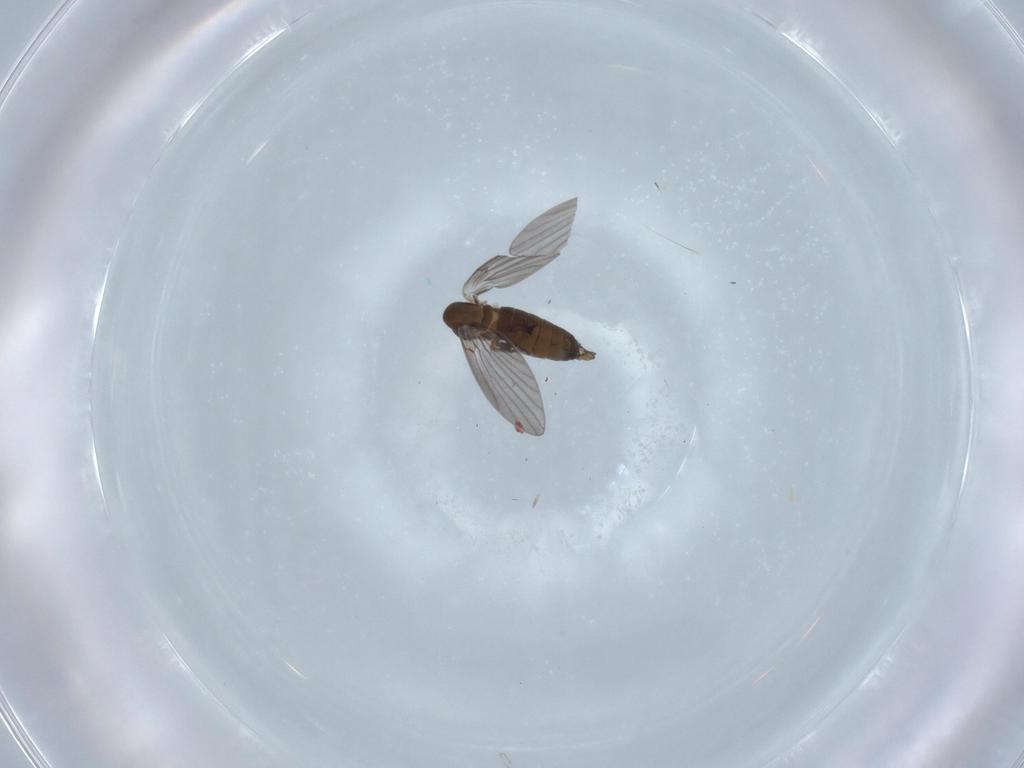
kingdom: Animalia
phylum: Arthropoda
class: Insecta
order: Diptera
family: Psychodidae
